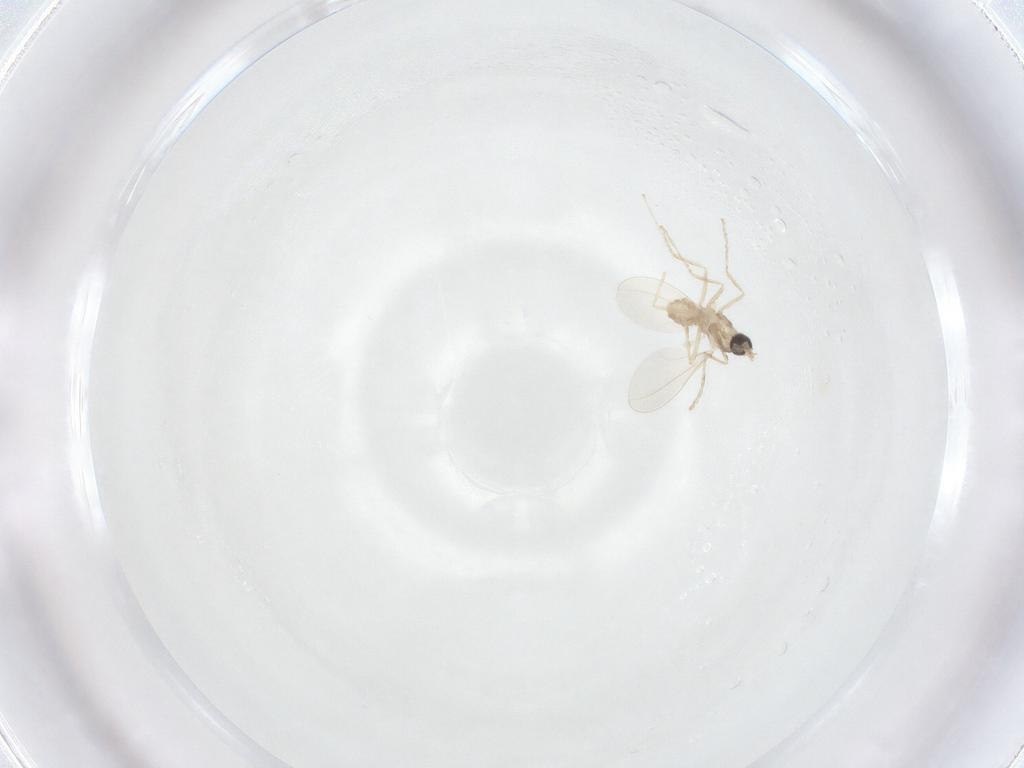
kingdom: Animalia
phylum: Arthropoda
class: Insecta
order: Diptera
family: Cecidomyiidae
